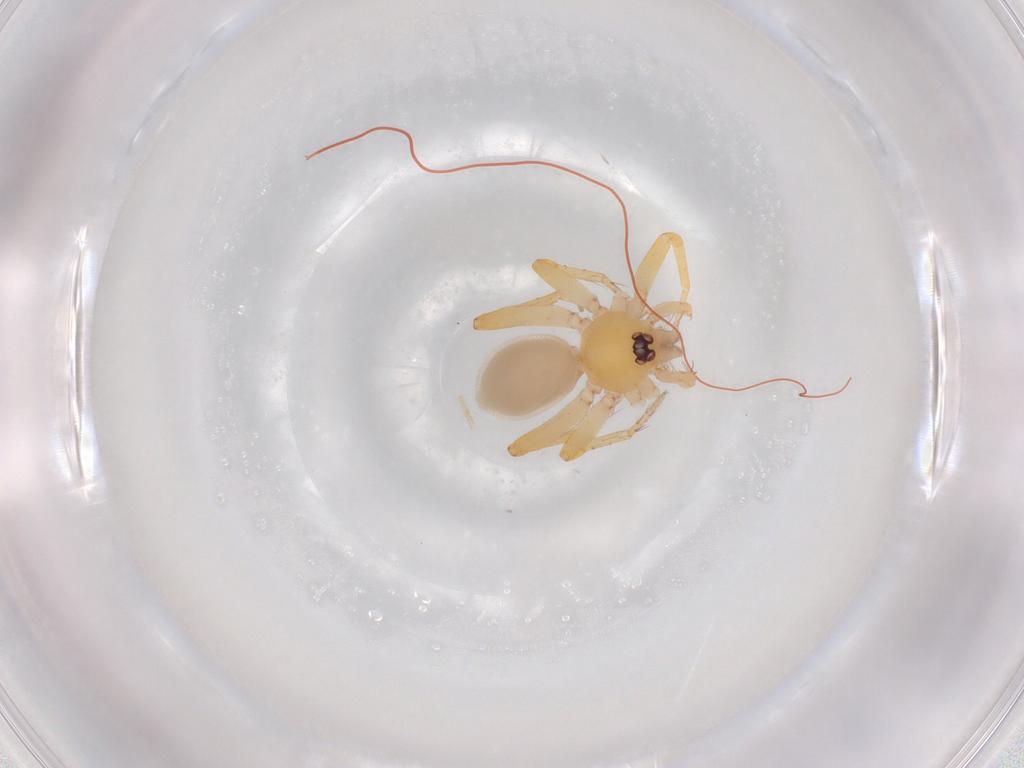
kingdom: Animalia
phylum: Arthropoda
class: Arachnida
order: Araneae
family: Oonopidae
